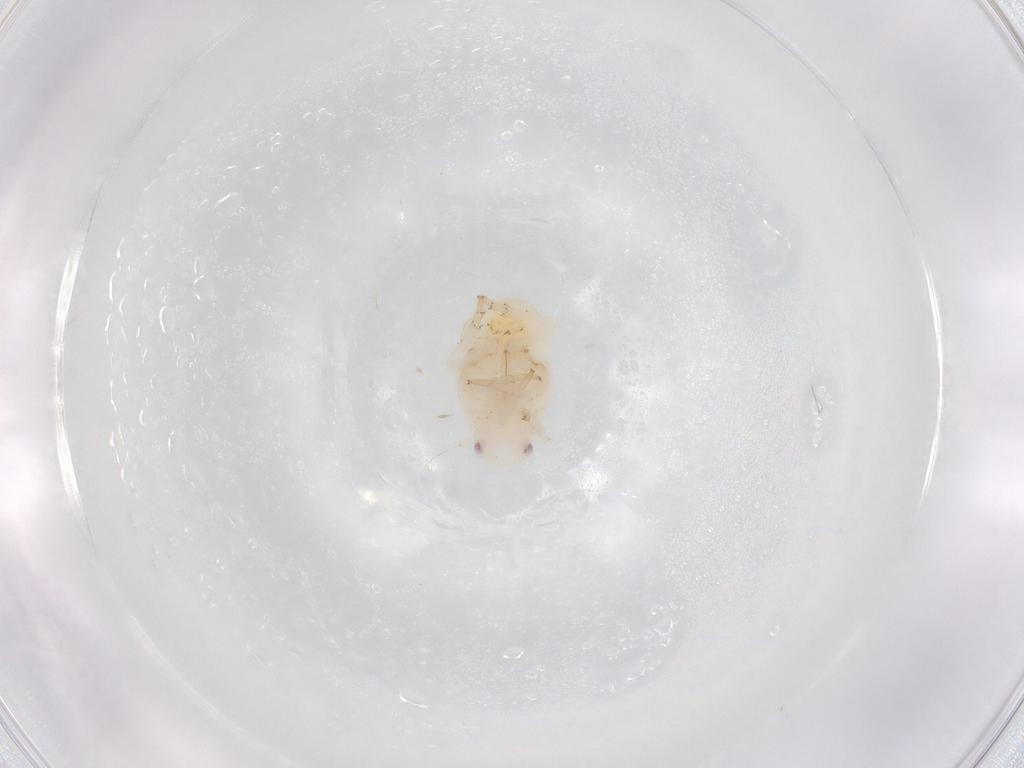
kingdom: Animalia
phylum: Arthropoda
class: Insecta
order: Hemiptera
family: Flatidae
